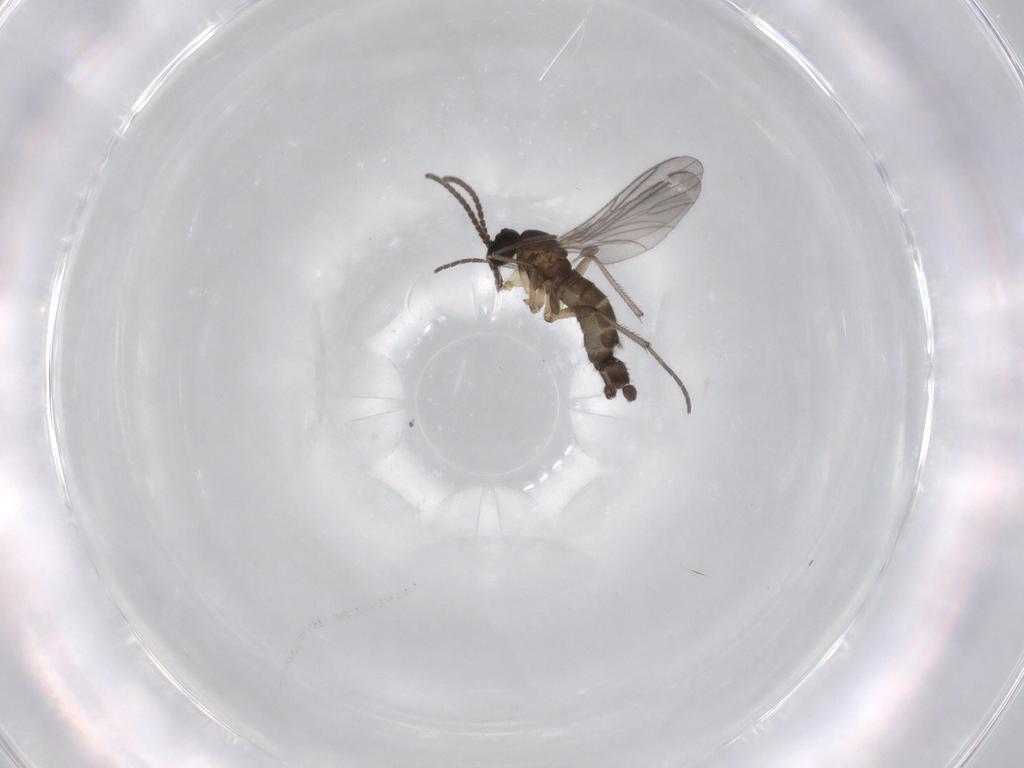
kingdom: Animalia
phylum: Arthropoda
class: Insecta
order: Diptera
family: Sciaridae
